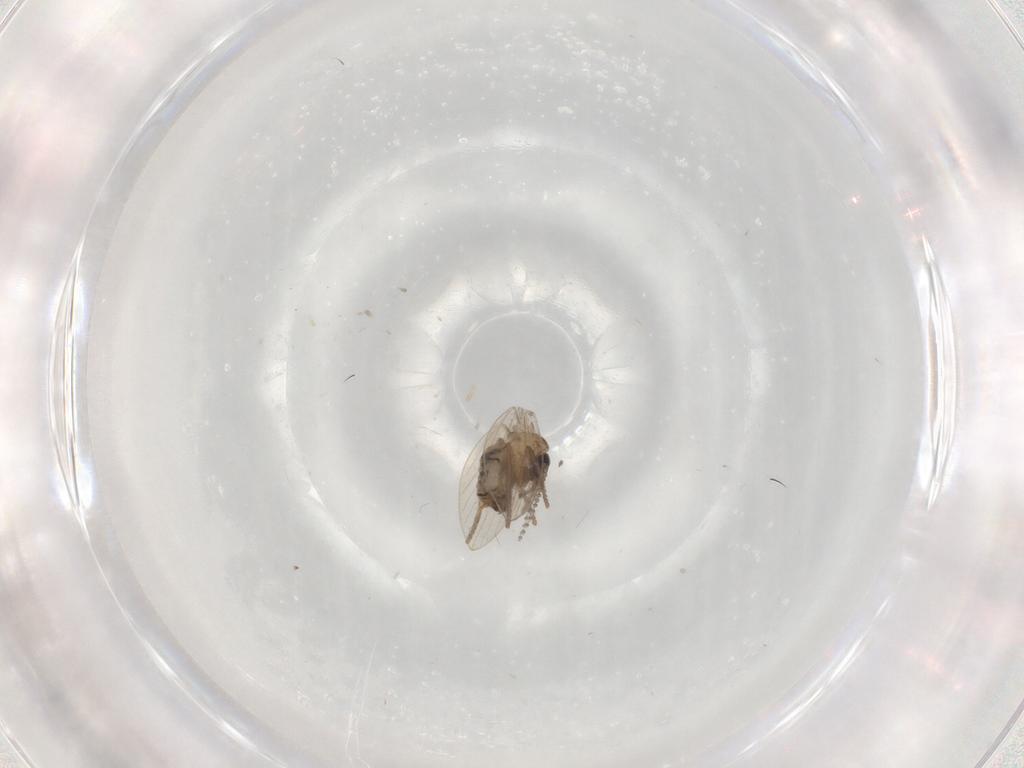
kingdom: Animalia
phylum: Arthropoda
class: Insecta
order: Diptera
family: Psychodidae
